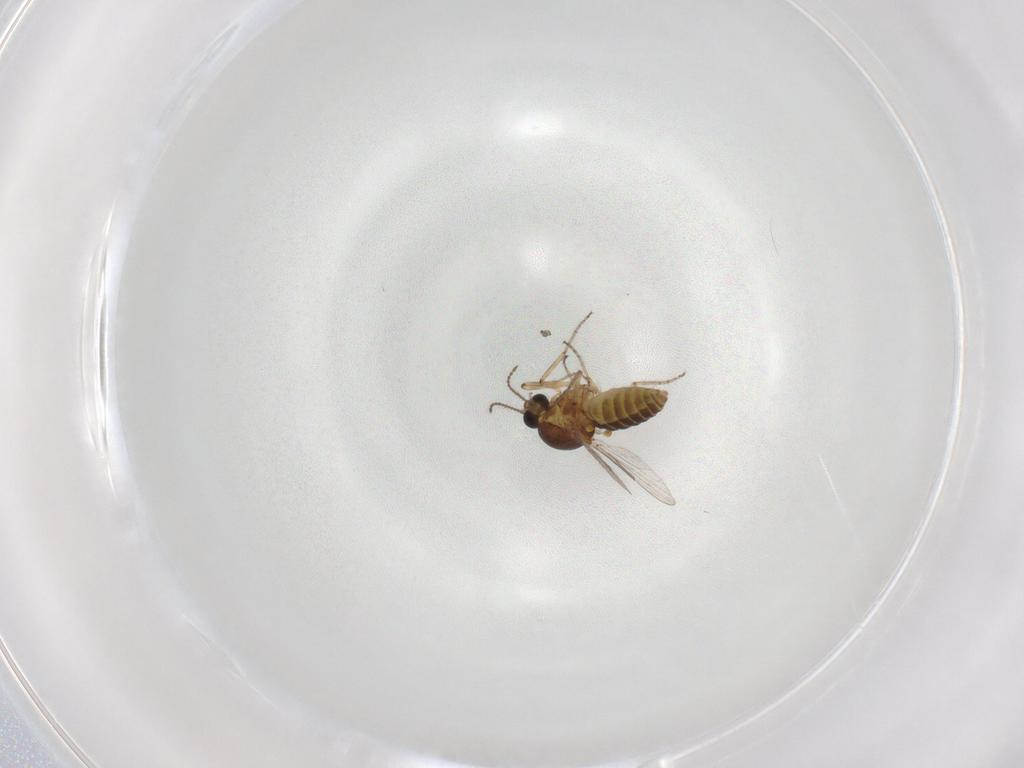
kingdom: Animalia
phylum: Arthropoda
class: Insecta
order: Diptera
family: Ceratopogonidae
